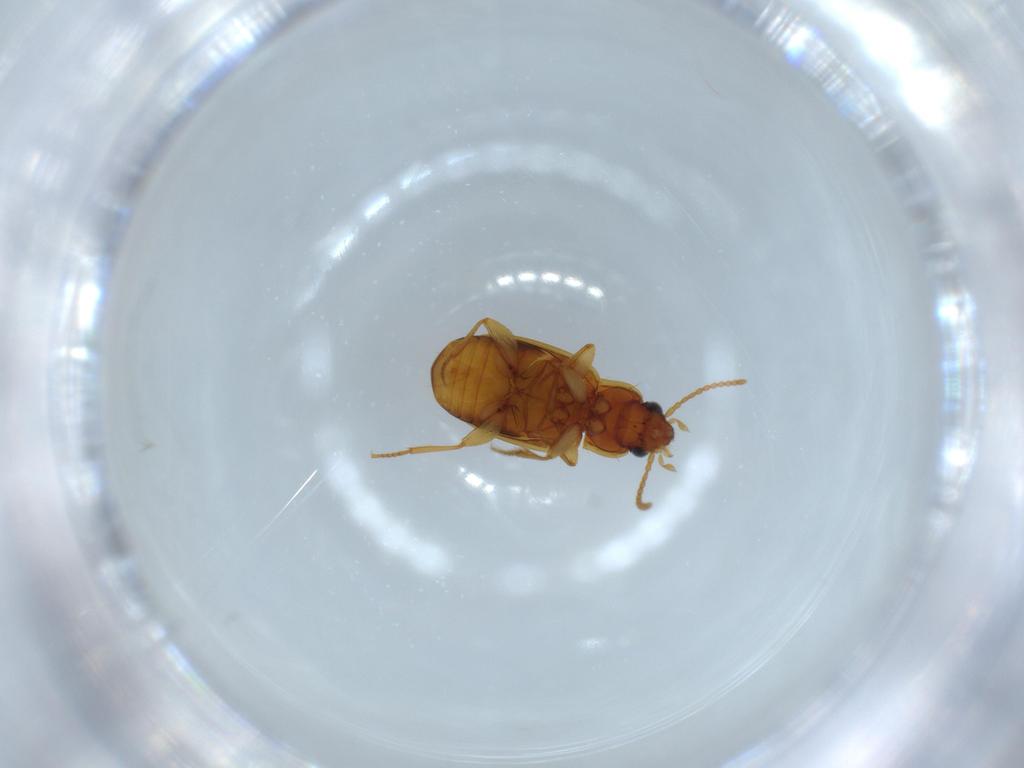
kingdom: Animalia
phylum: Arthropoda
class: Insecta
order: Coleoptera
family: Carabidae
